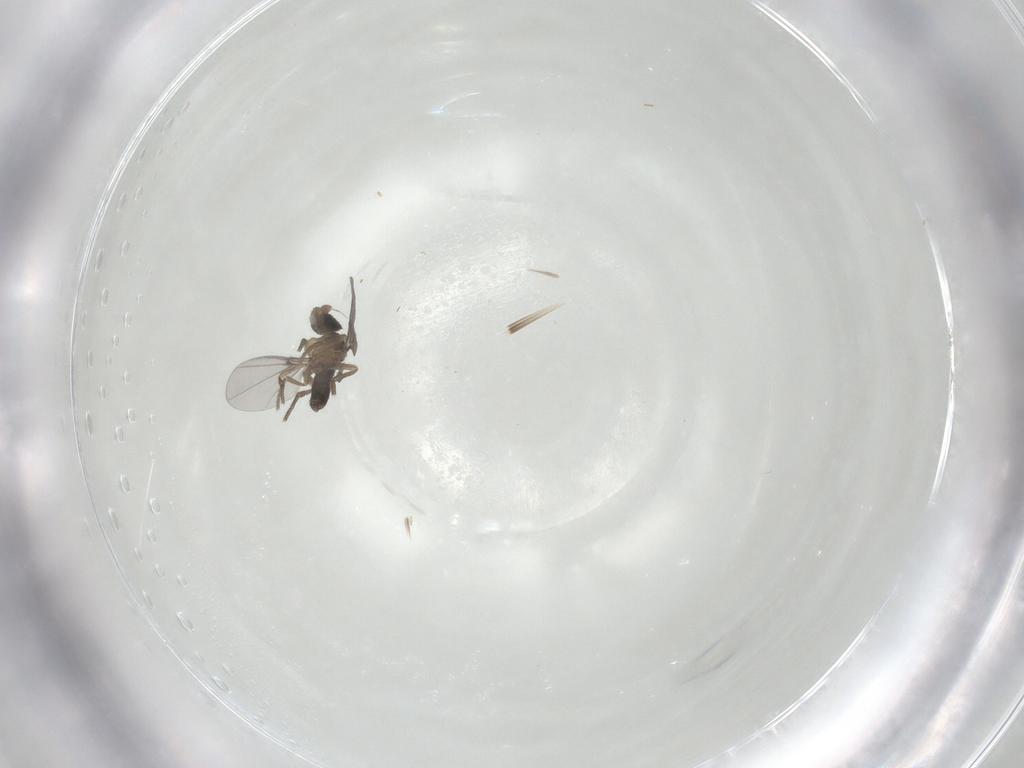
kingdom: Animalia
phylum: Arthropoda
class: Insecta
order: Diptera
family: Phoridae
